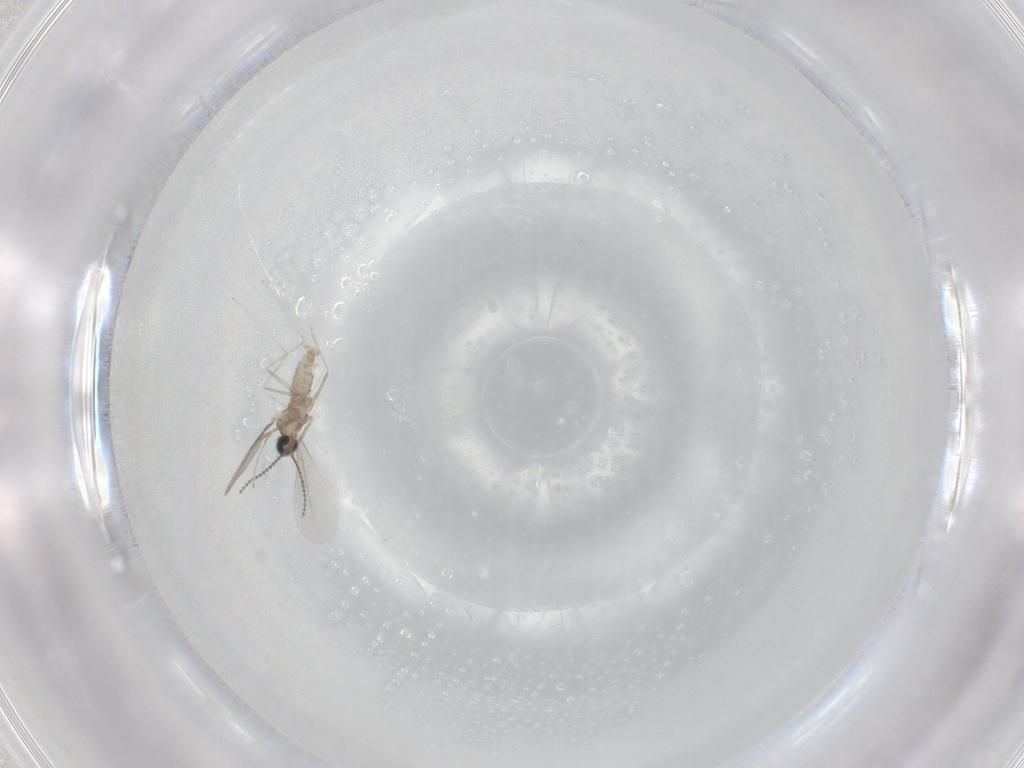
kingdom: Animalia
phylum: Arthropoda
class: Insecta
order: Diptera
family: Cecidomyiidae
